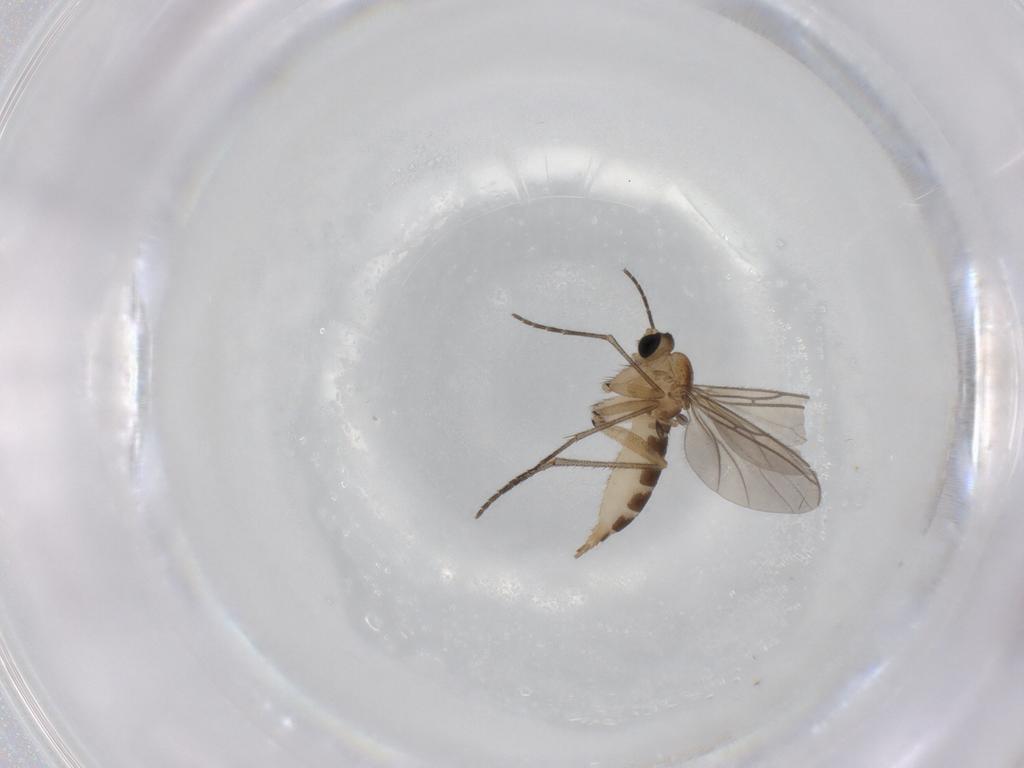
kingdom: Animalia
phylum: Arthropoda
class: Insecta
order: Diptera
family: Sciaridae
